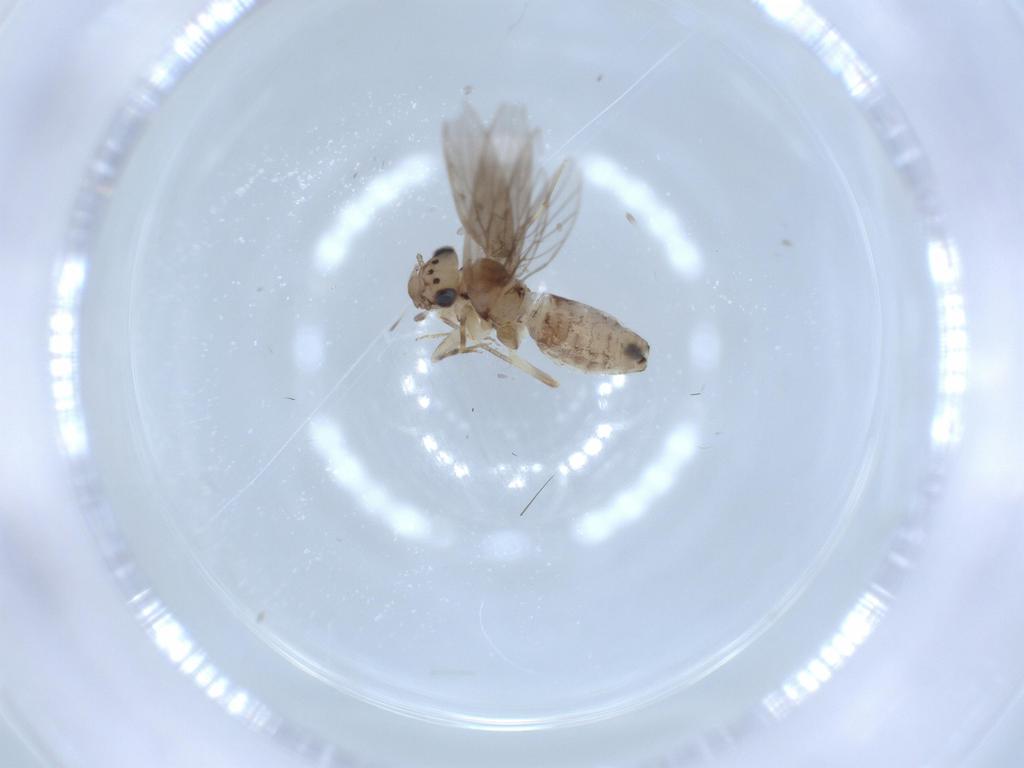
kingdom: Animalia
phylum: Arthropoda
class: Insecta
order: Psocodea
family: Lepidopsocidae
